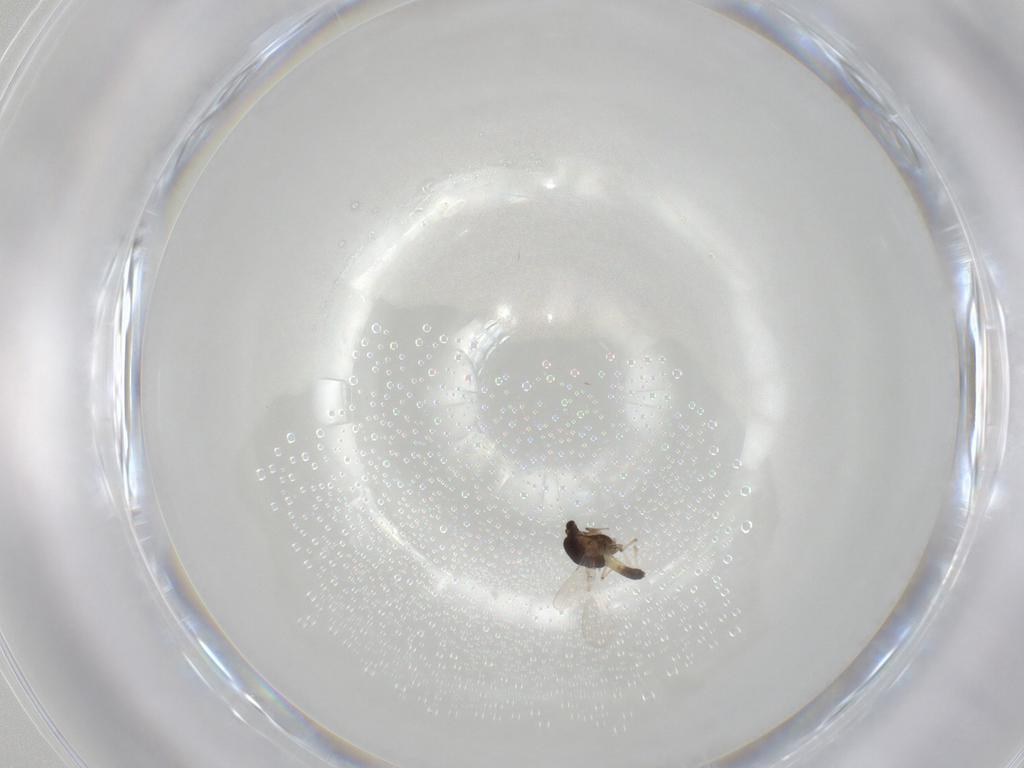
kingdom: Animalia
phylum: Arthropoda
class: Insecta
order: Diptera
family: Chironomidae
